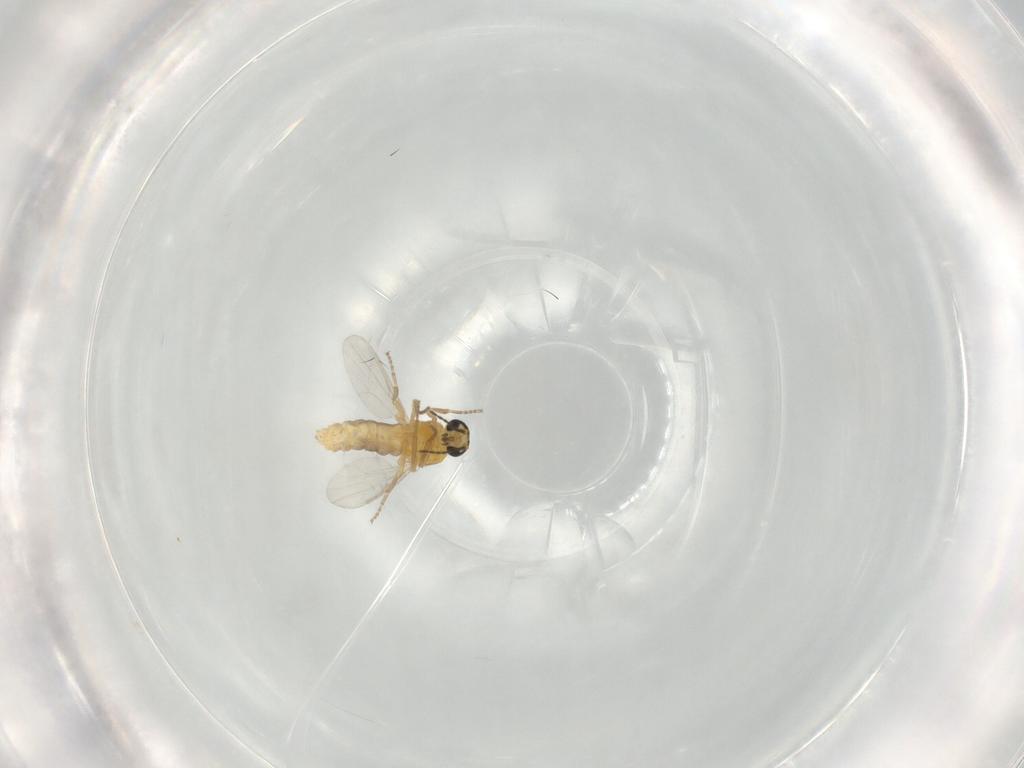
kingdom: Animalia
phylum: Arthropoda
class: Insecta
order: Diptera
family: Ceratopogonidae
